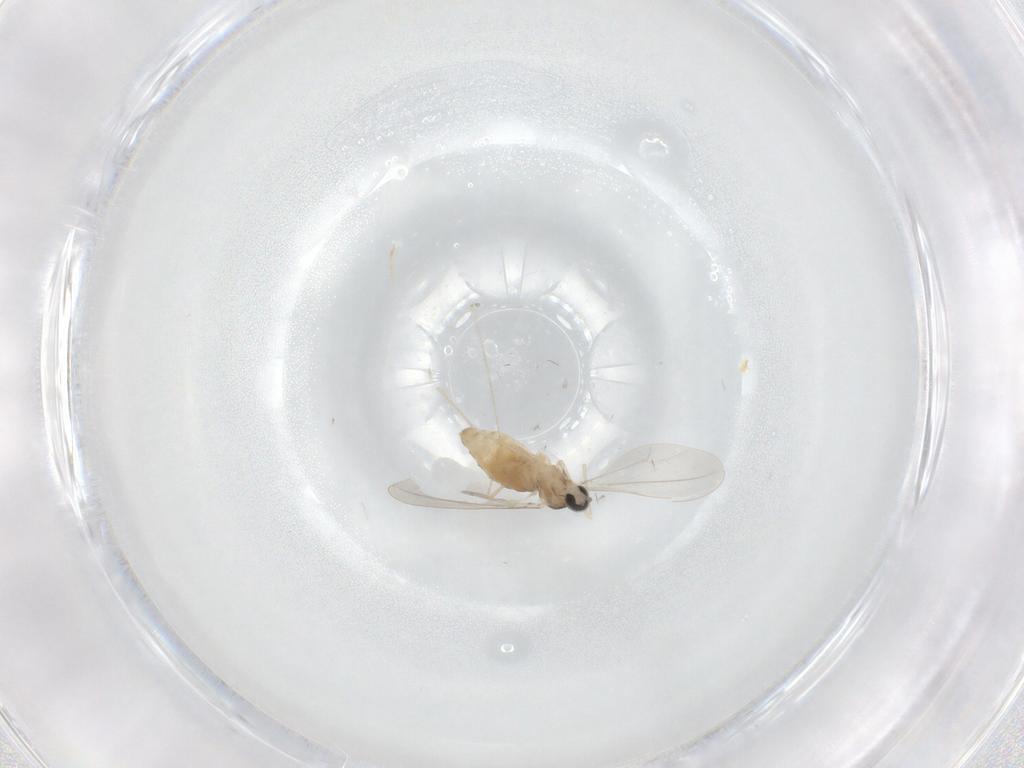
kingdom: Animalia
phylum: Arthropoda
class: Insecta
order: Diptera
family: Cecidomyiidae
